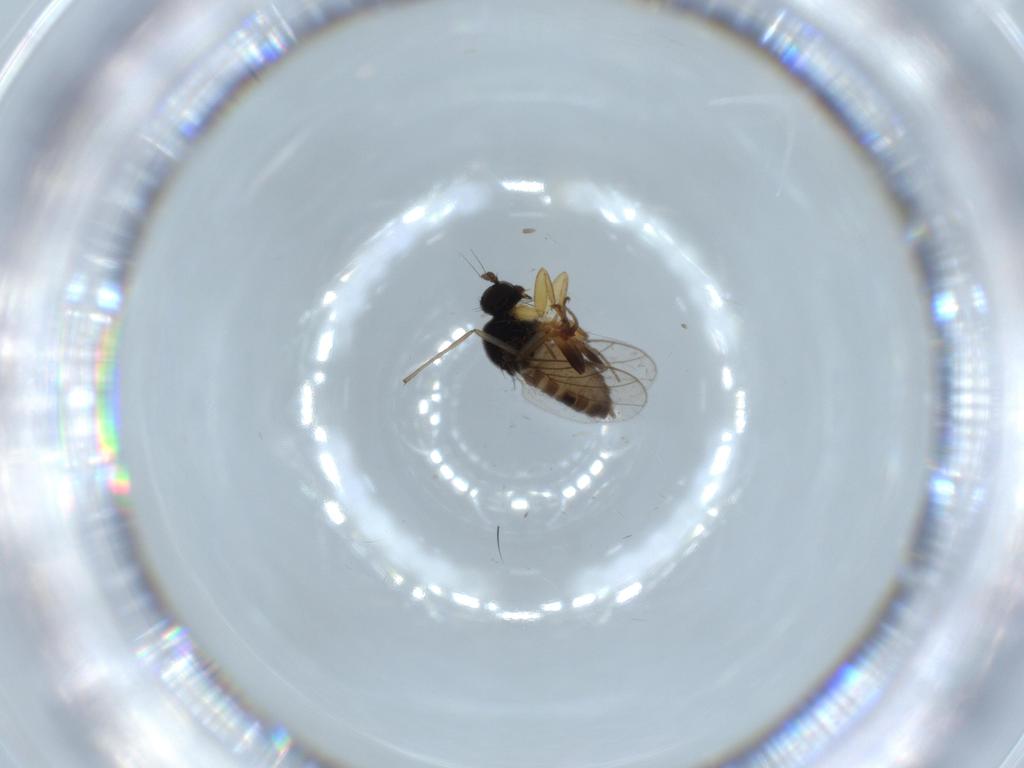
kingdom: Animalia
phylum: Arthropoda
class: Insecta
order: Diptera
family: Hybotidae
